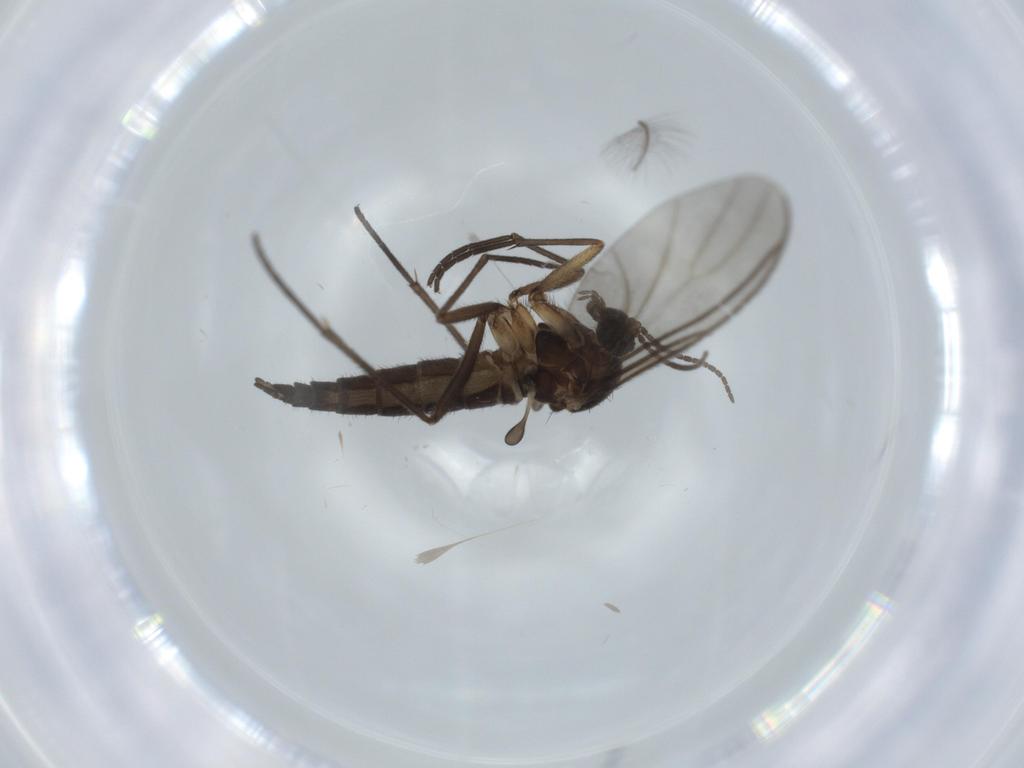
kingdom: Animalia
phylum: Arthropoda
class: Insecta
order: Diptera
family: Sciaridae
